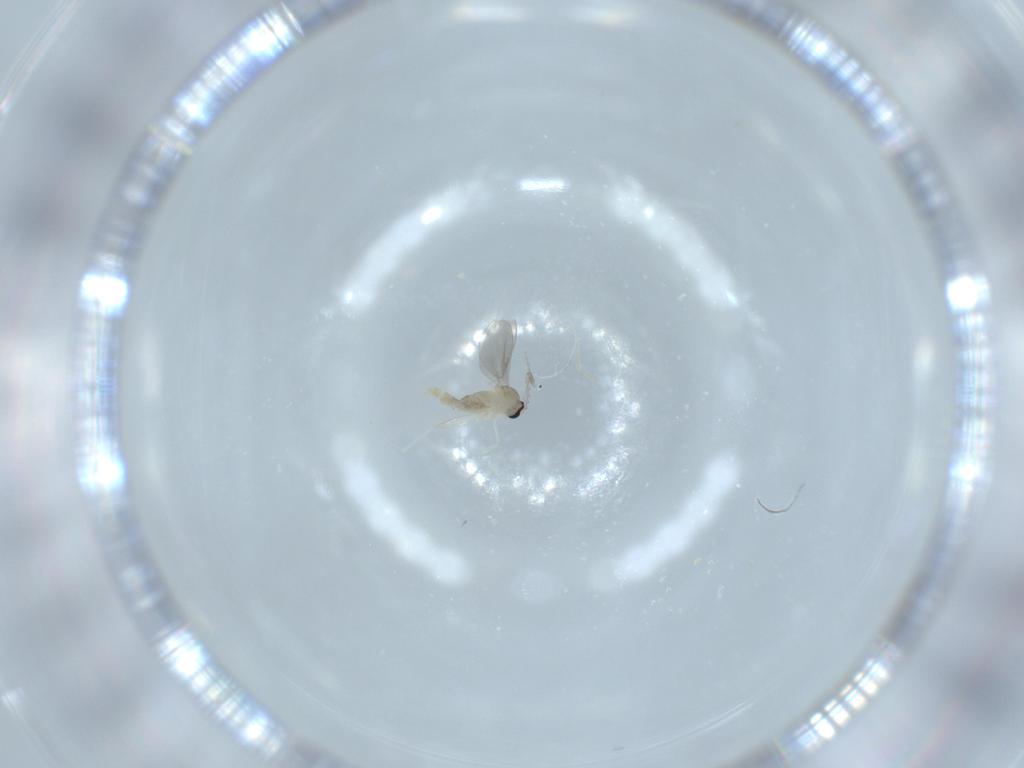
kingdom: Animalia
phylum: Arthropoda
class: Insecta
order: Diptera
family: Cecidomyiidae
